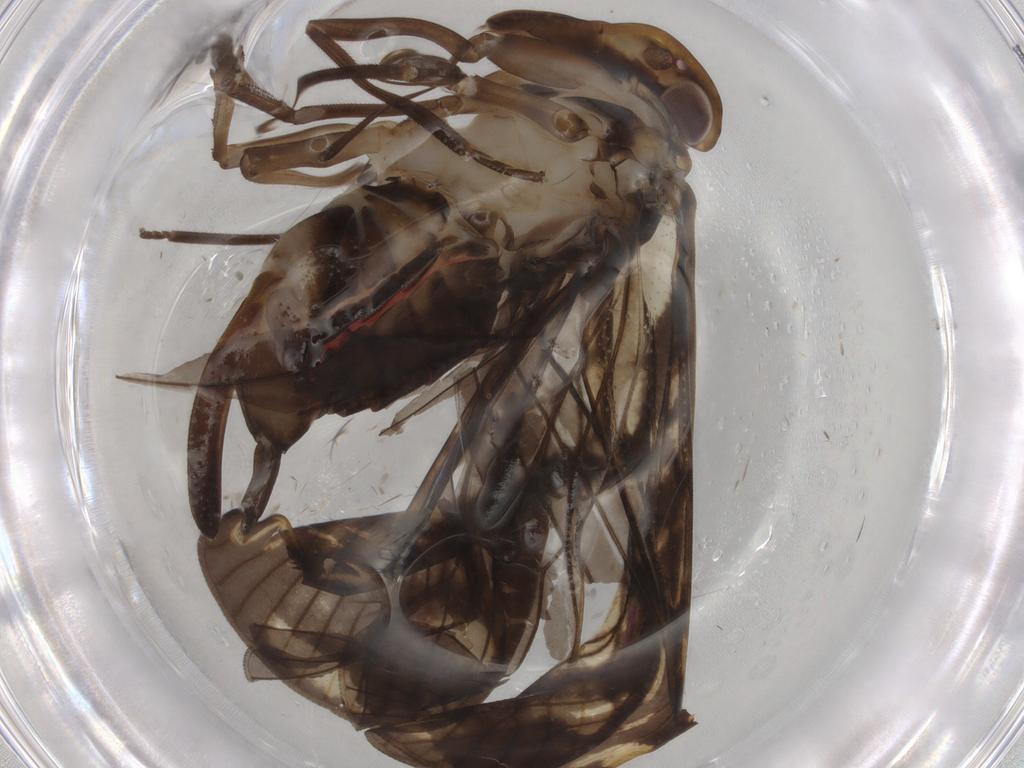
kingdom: Animalia
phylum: Arthropoda
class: Insecta
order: Hemiptera
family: Cixiidae
